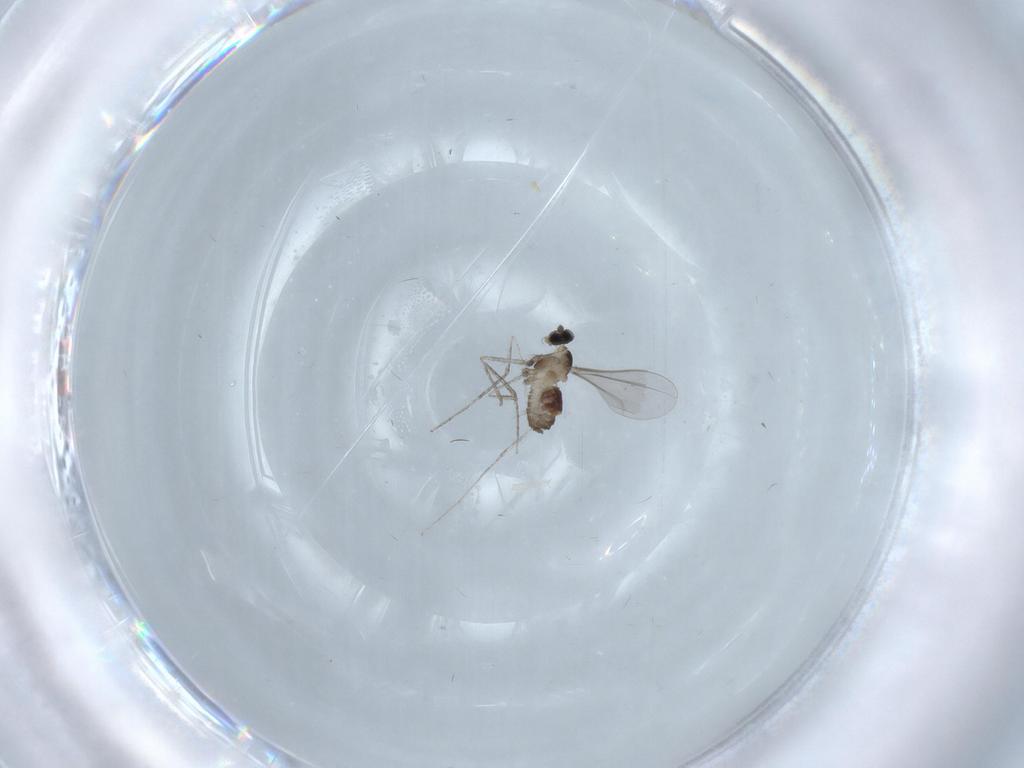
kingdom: Animalia
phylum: Arthropoda
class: Insecta
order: Diptera
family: Cecidomyiidae
